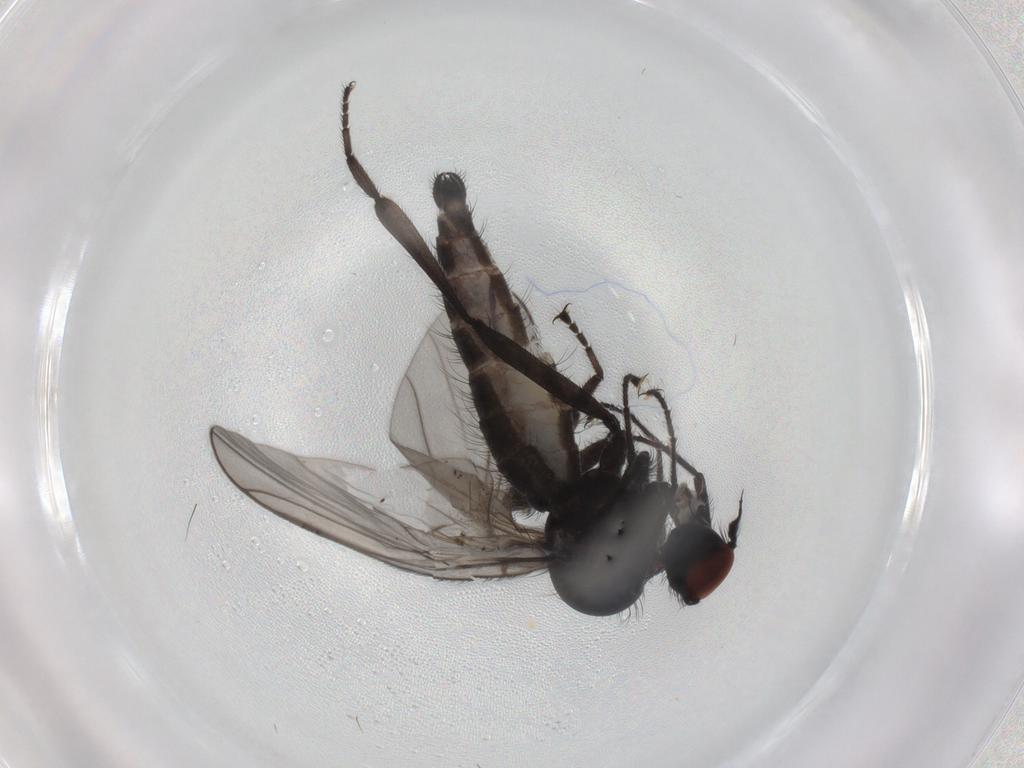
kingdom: Animalia
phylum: Arthropoda
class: Insecta
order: Diptera
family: Hybotidae
